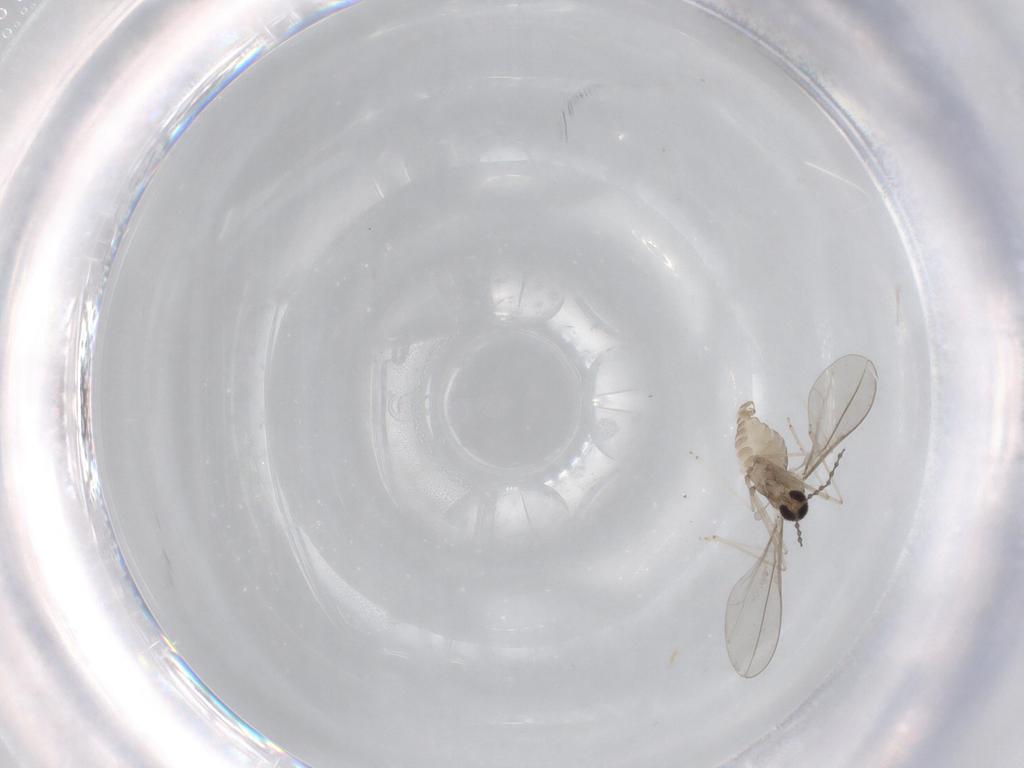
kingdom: Animalia
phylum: Arthropoda
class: Insecta
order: Diptera
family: Cecidomyiidae
